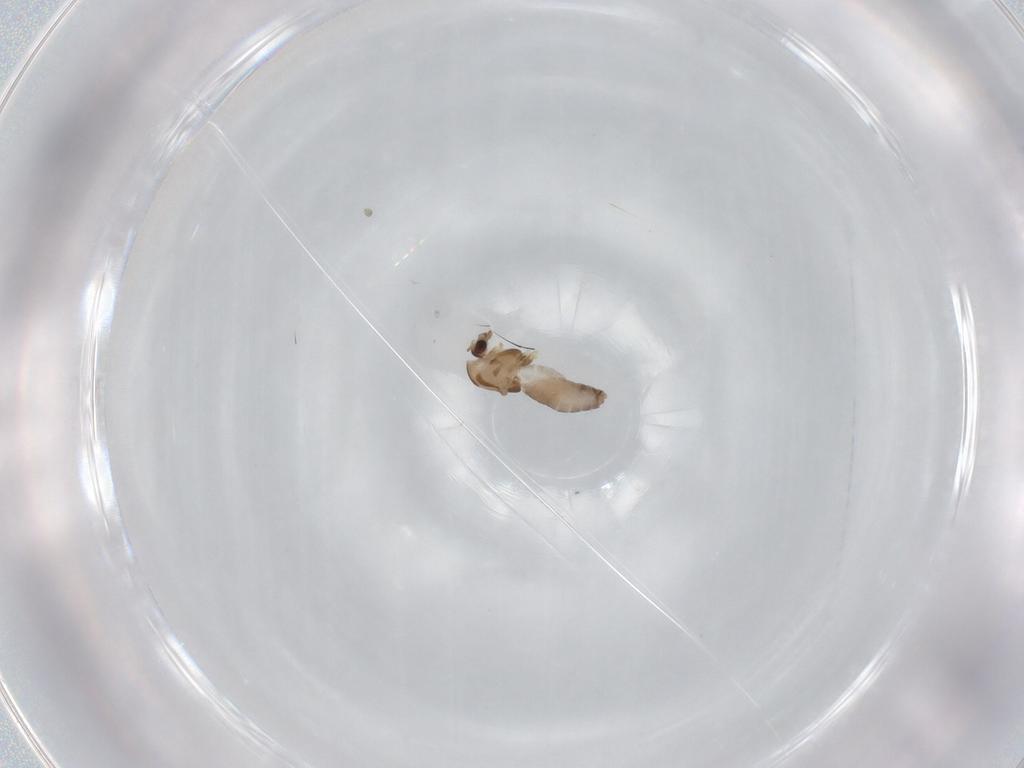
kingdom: Animalia
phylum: Arthropoda
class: Insecta
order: Diptera
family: Chironomidae
